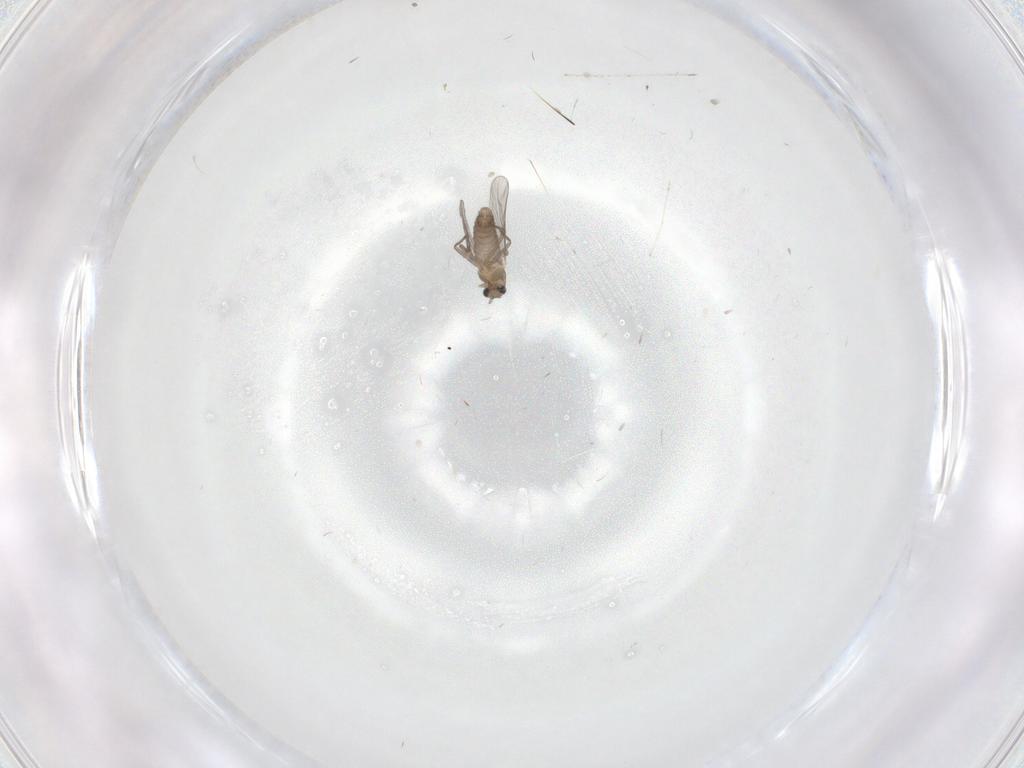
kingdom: Animalia
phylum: Arthropoda
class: Insecta
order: Diptera
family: Chironomidae
